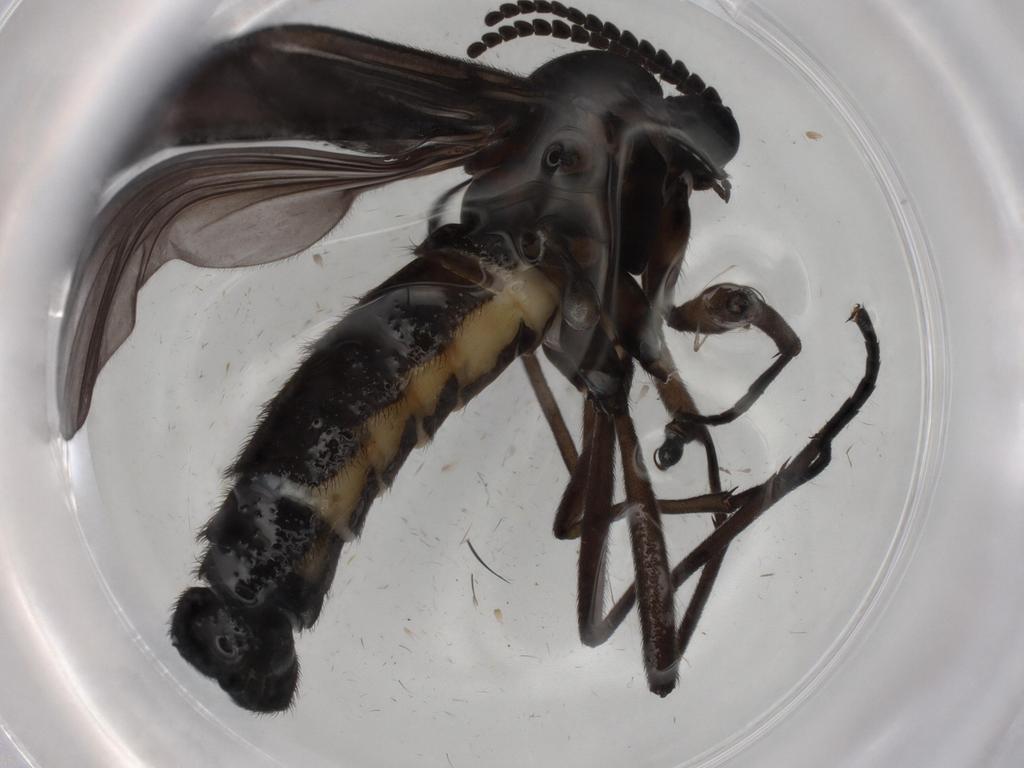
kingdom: Animalia
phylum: Arthropoda
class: Insecta
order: Diptera
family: Sciaridae
